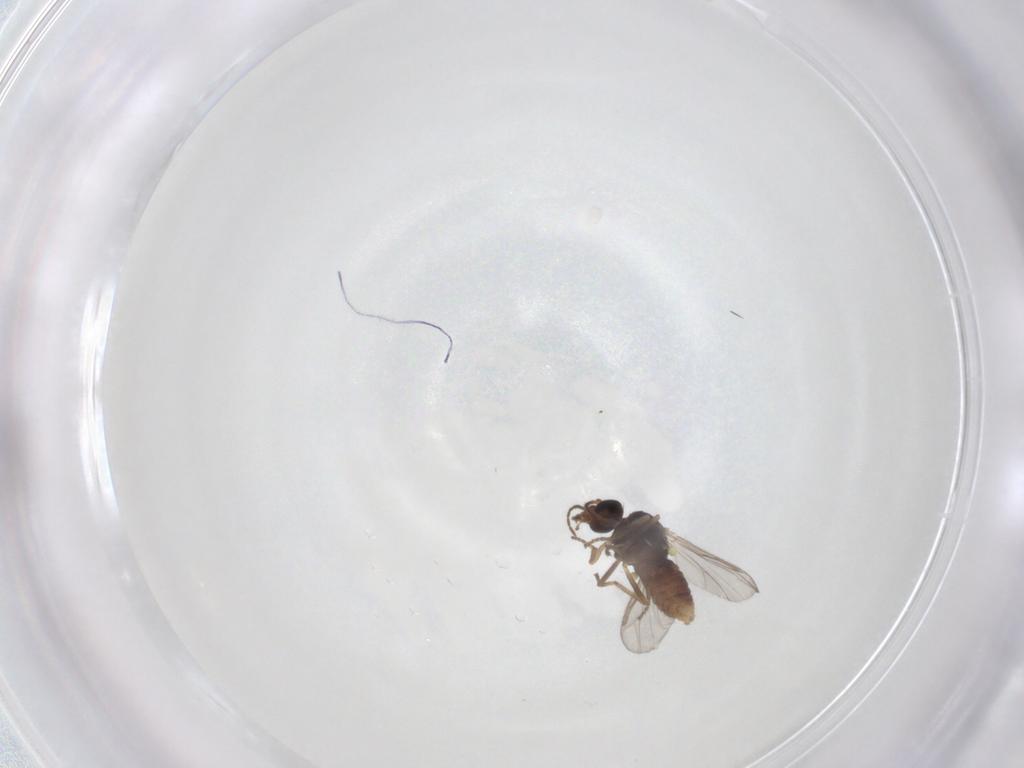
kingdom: Animalia
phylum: Arthropoda
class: Insecta
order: Diptera
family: Ceratopogonidae
